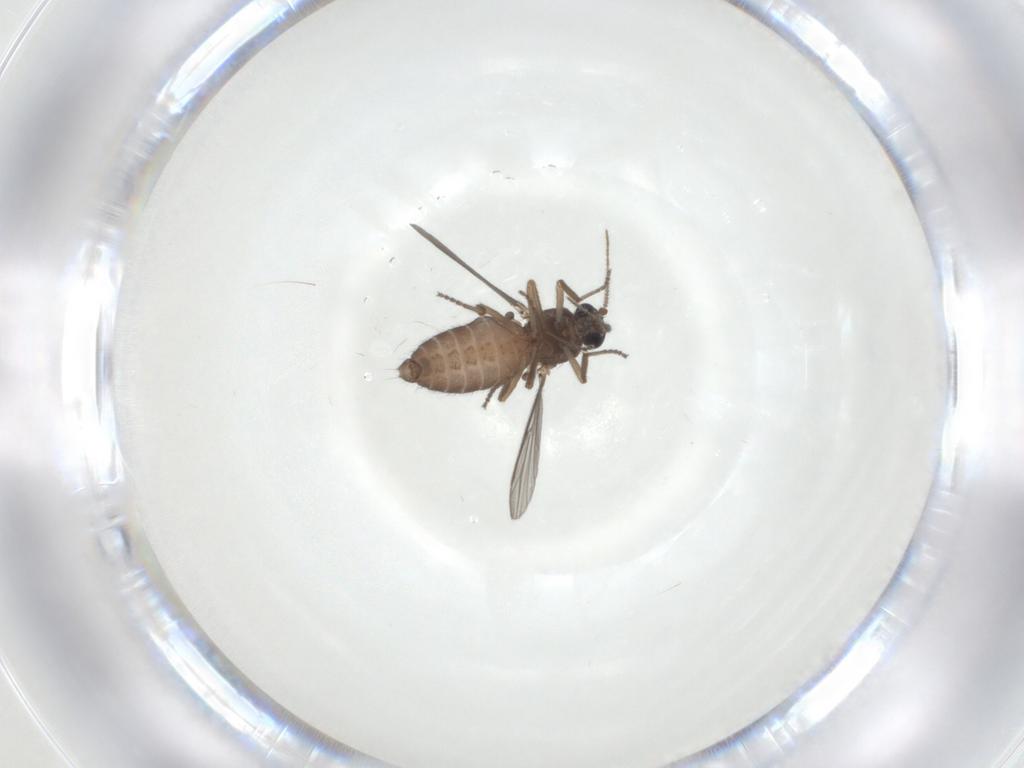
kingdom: Animalia
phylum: Arthropoda
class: Insecta
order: Diptera
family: Ceratopogonidae
